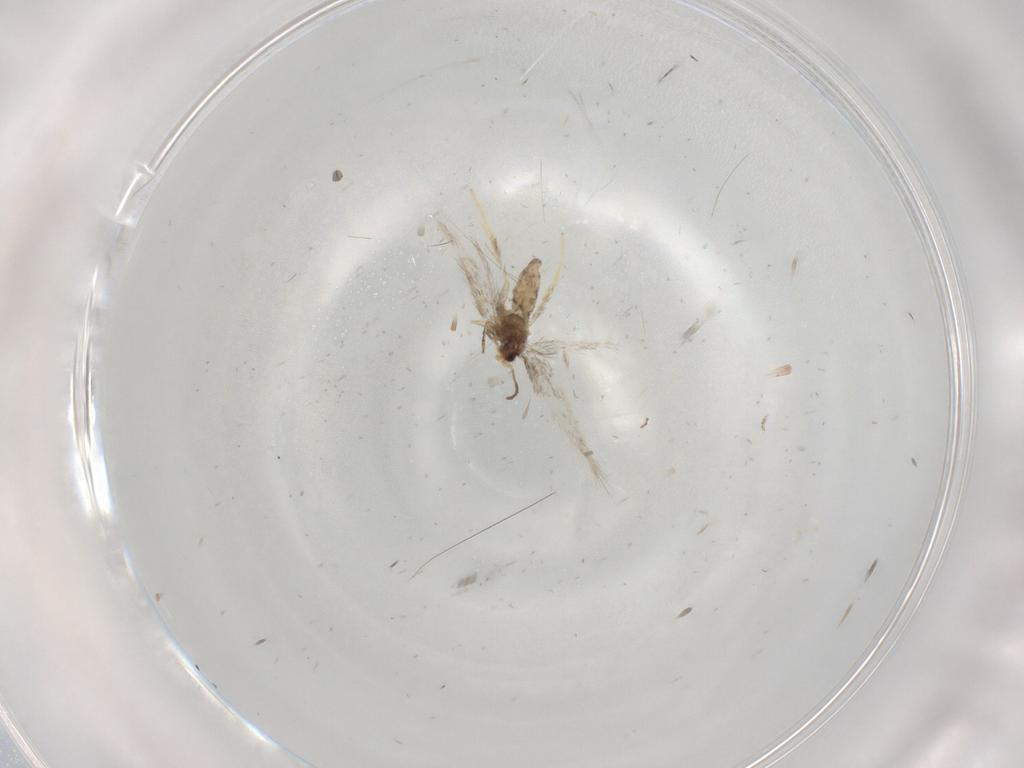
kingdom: Animalia
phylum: Arthropoda
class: Insecta
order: Lepidoptera
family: Nepticulidae
